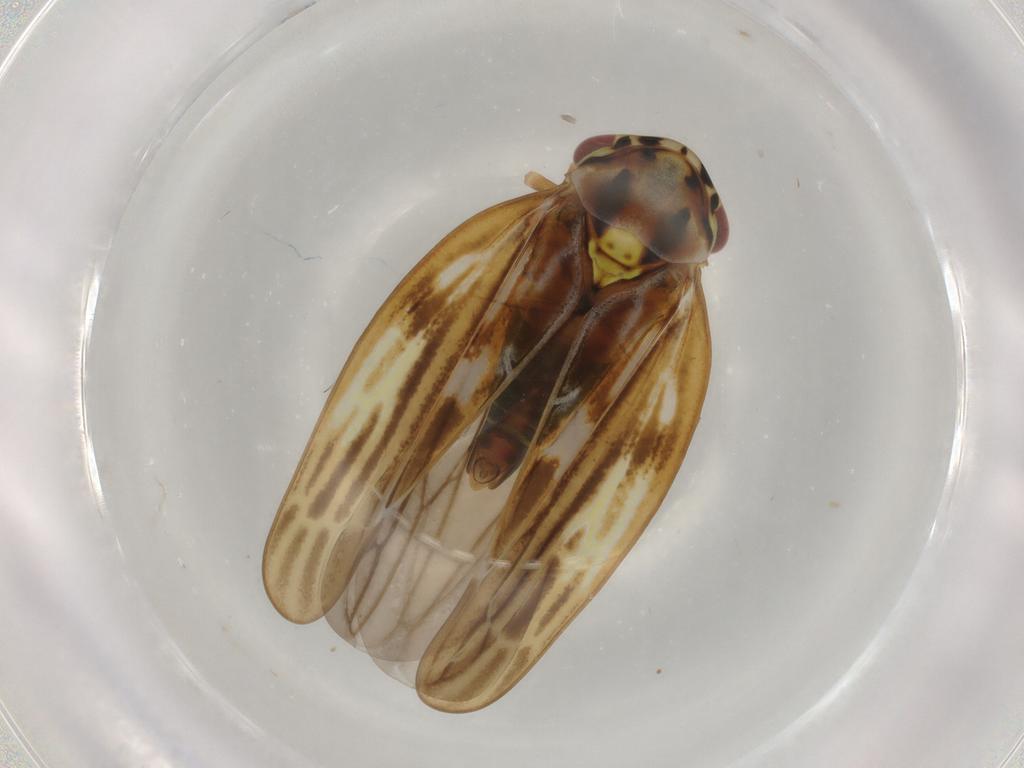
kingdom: Animalia
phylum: Arthropoda
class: Insecta
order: Hemiptera
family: Cicadellidae
